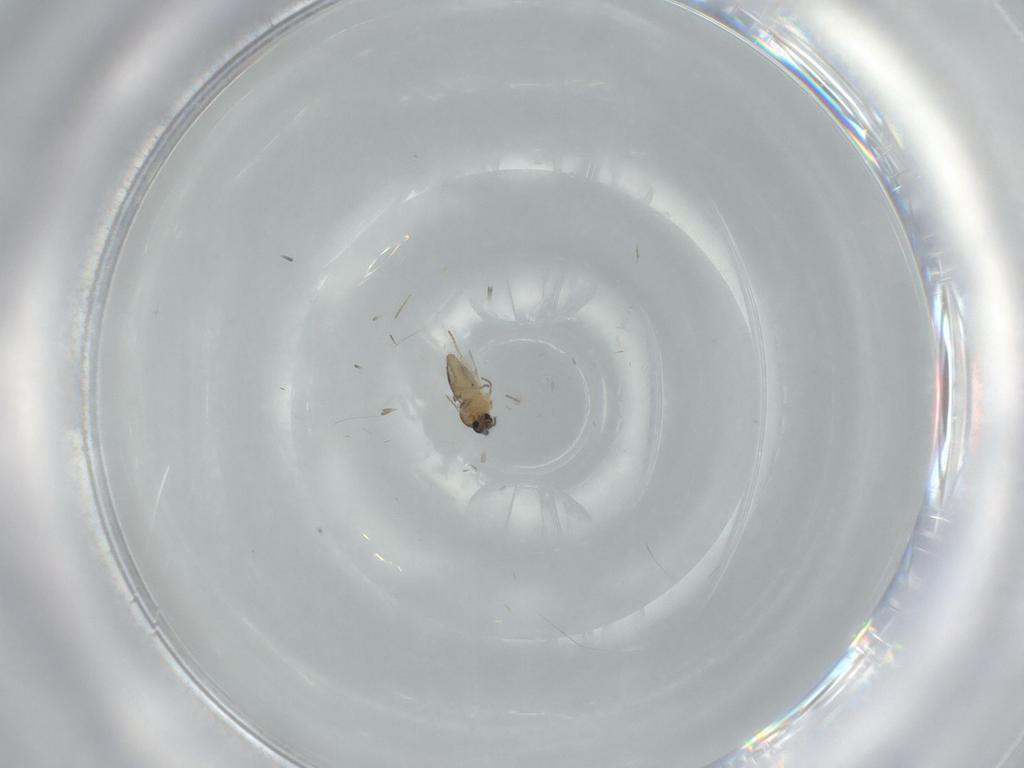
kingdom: Animalia
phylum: Arthropoda
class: Insecta
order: Diptera
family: Ceratopogonidae
